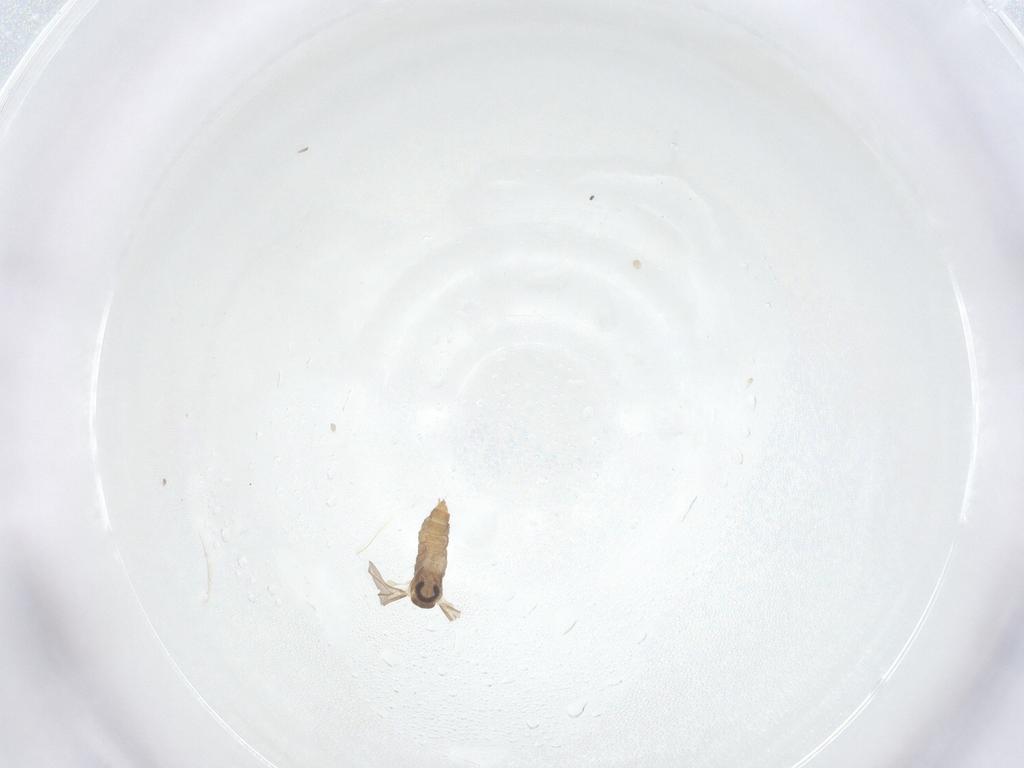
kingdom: Animalia
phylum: Arthropoda
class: Insecta
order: Diptera
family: Cecidomyiidae
